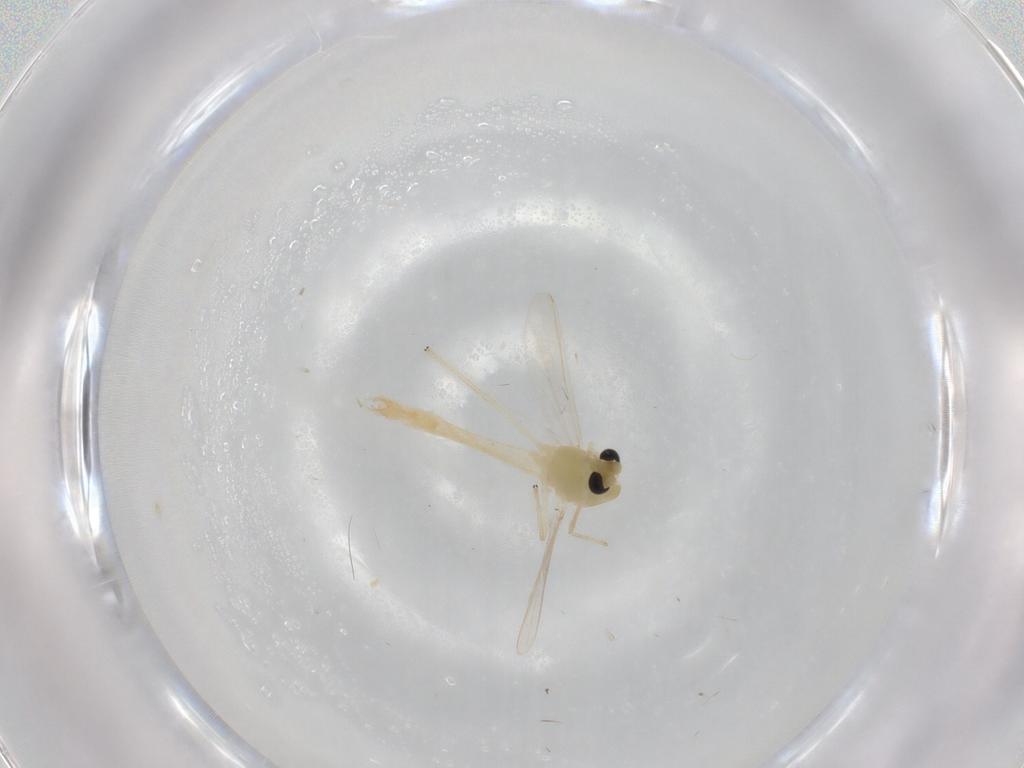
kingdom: Animalia
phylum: Arthropoda
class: Insecta
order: Diptera
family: Chironomidae
